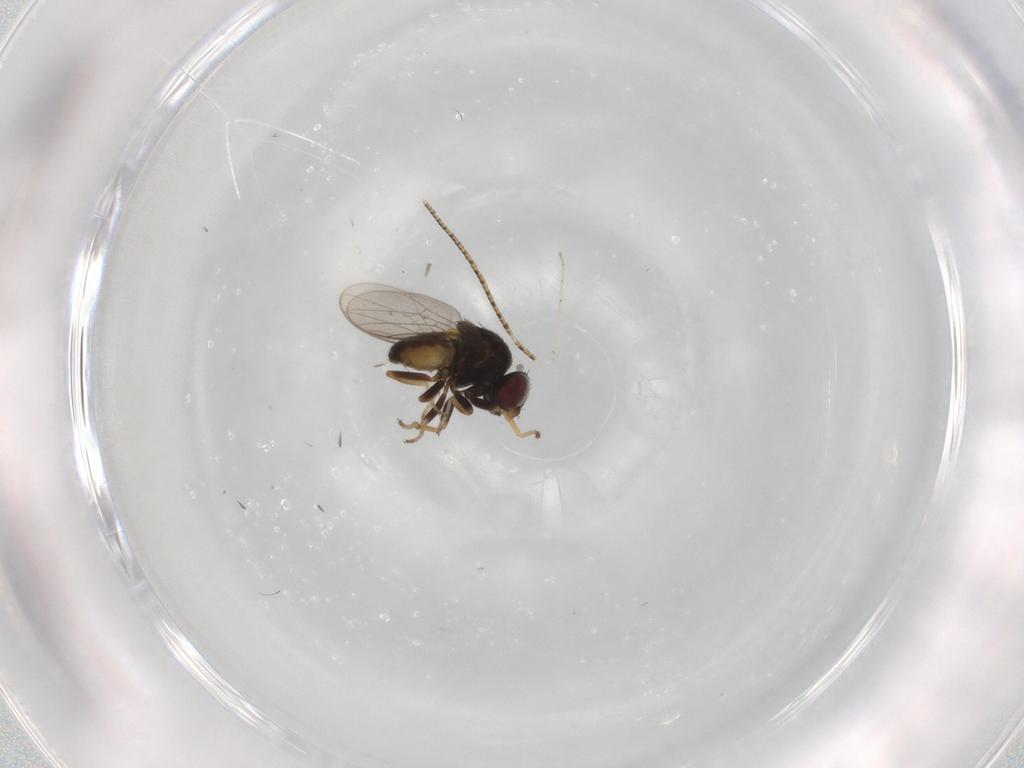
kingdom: Animalia
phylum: Arthropoda
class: Insecta
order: Diptera
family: Chloropidae
